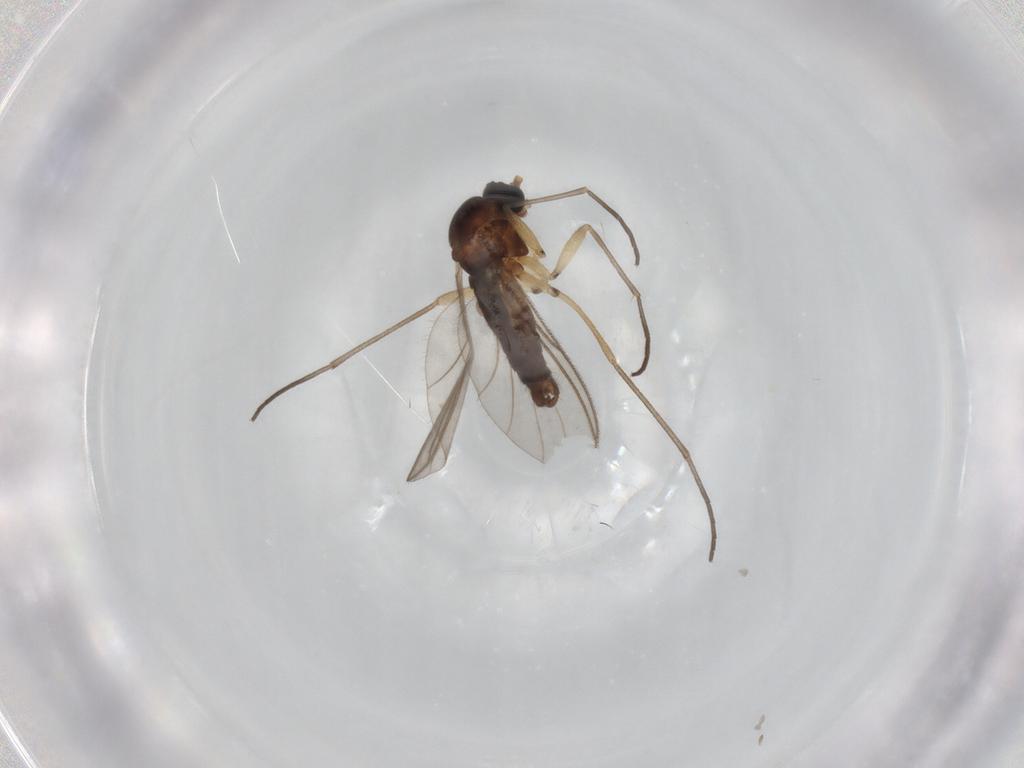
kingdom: Animalia
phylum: Arthropoda
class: Insecta
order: Diptera
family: Sciaridae
